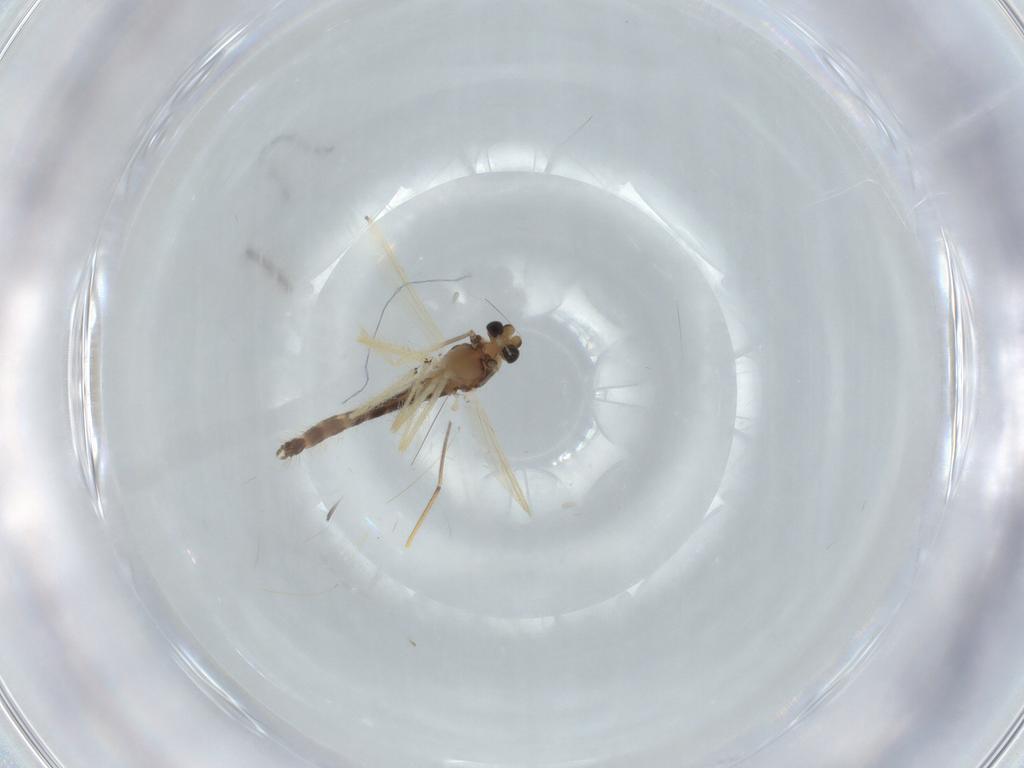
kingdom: Animalia
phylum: Arthropoda
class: Insecta
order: Diptera
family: Chironomidae
